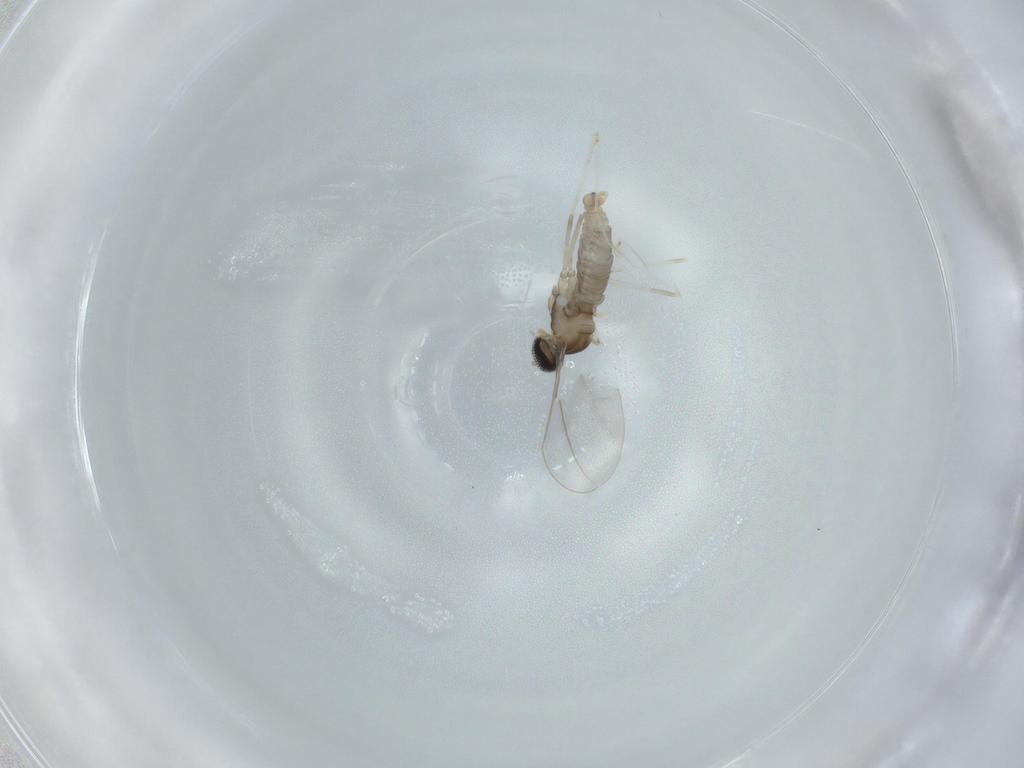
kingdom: Animalia
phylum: Arthropoda
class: Insecta
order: Diptera
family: Cecidomyiidae
